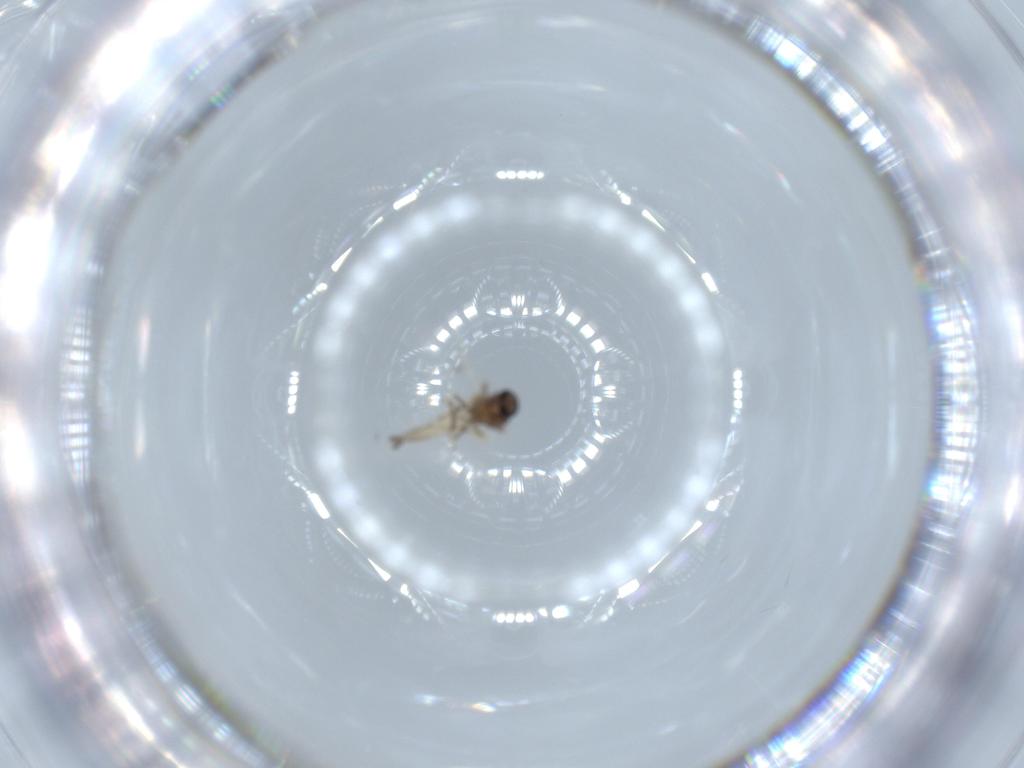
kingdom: Animalia
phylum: Arthropoda
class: Insecta
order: Diptera
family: Ceratopogonidae
